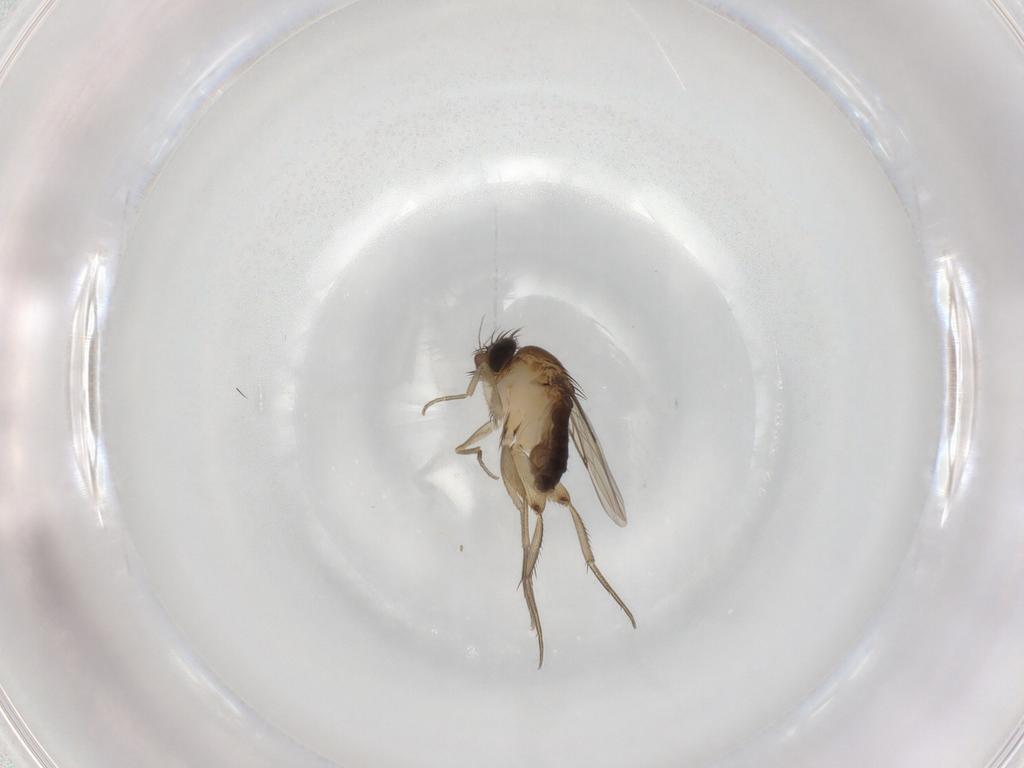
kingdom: Animalia
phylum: Arthropoda
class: Insecta
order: Diptera
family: Phoridae
